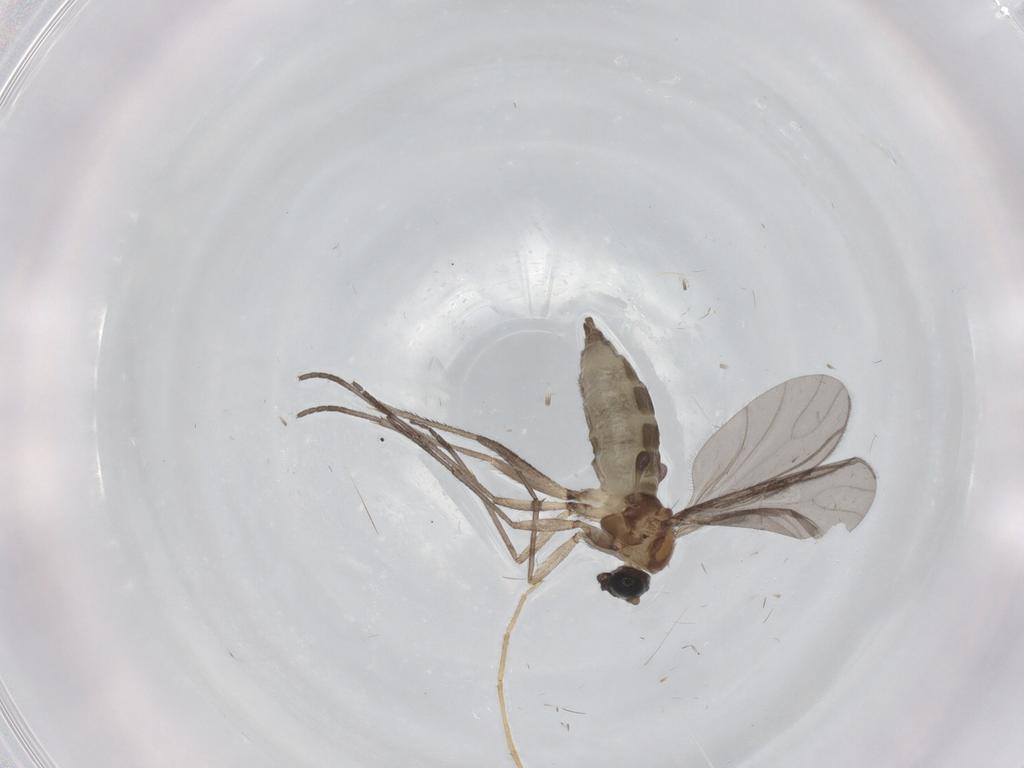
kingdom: Animalia
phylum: Arthropoda
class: Insecta
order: Diptera
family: Sciaridae
